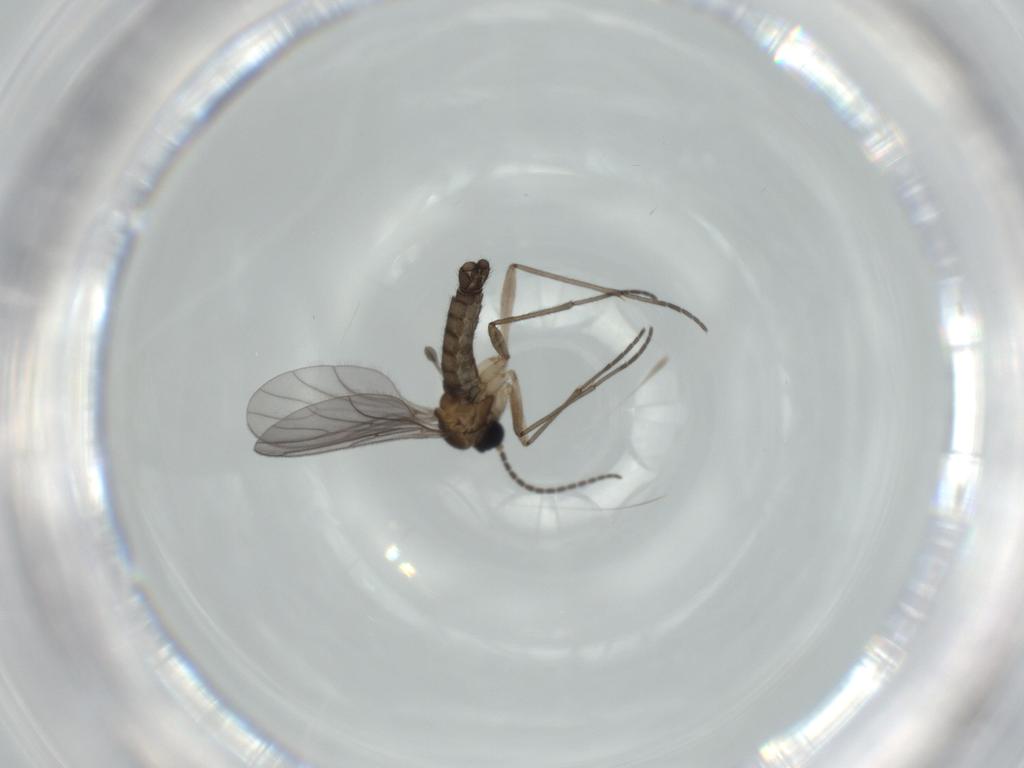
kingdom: Animalia
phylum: Arthropoda
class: Insecta
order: Diptera
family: Sciaridae
